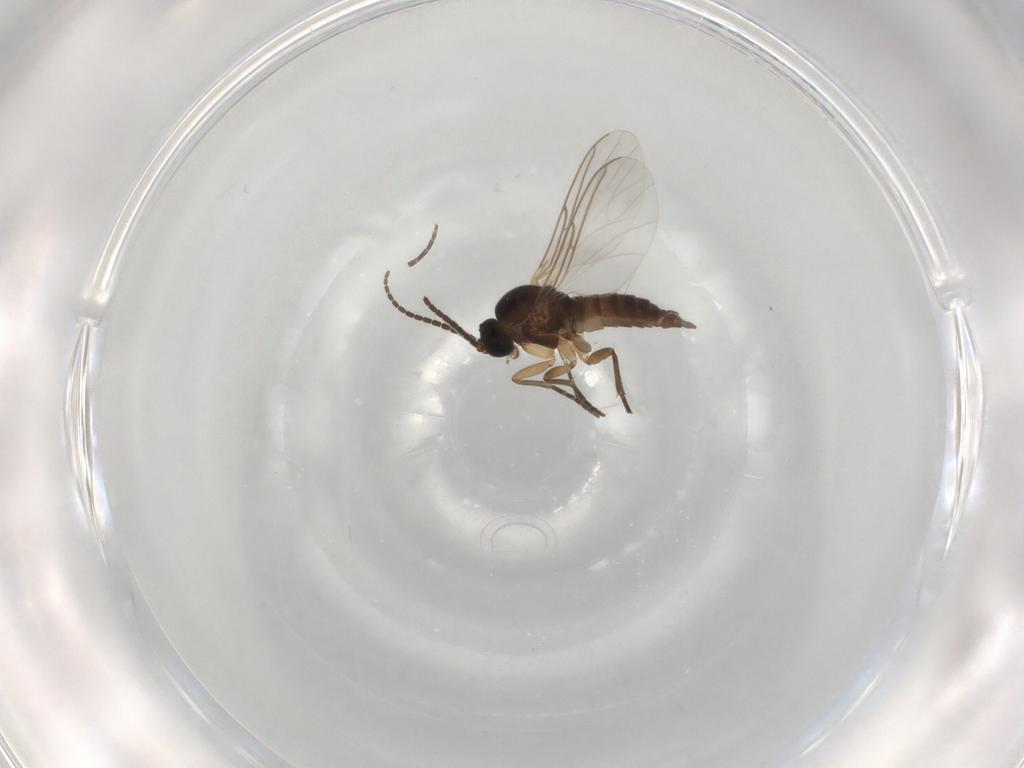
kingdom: Animalia
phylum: Arthropoda
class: Insecta
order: Diptera
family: Sciaridae
